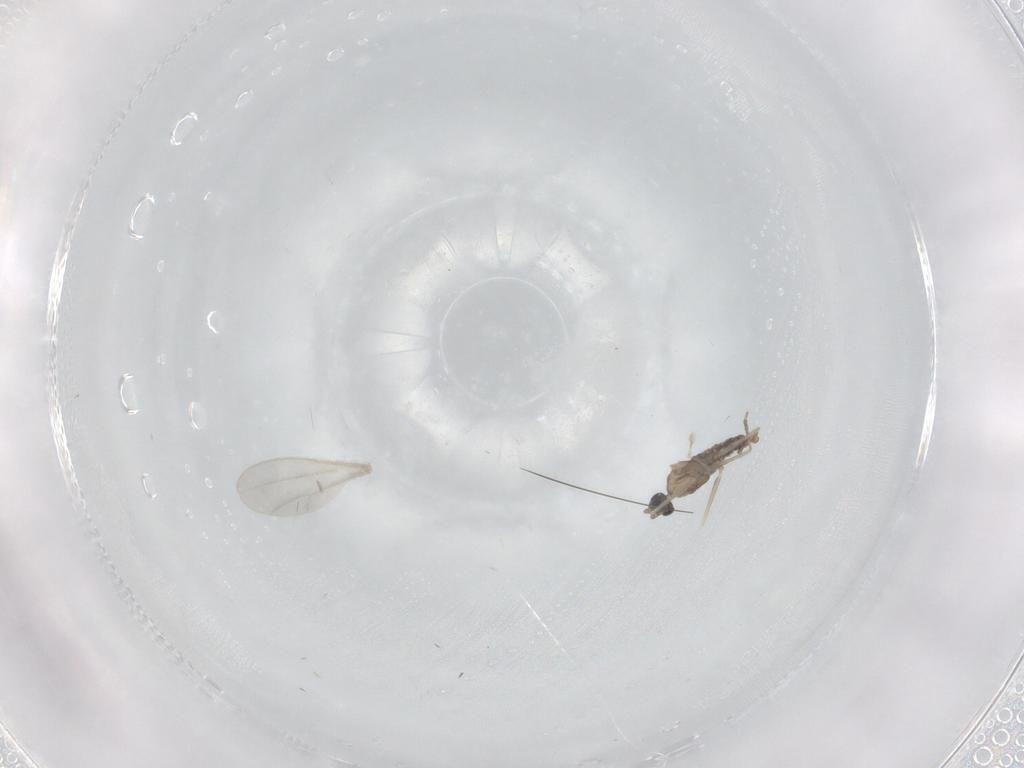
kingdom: Animalia
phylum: Arthropoda
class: Insecta
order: Diptera
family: Cecidomyiidae
